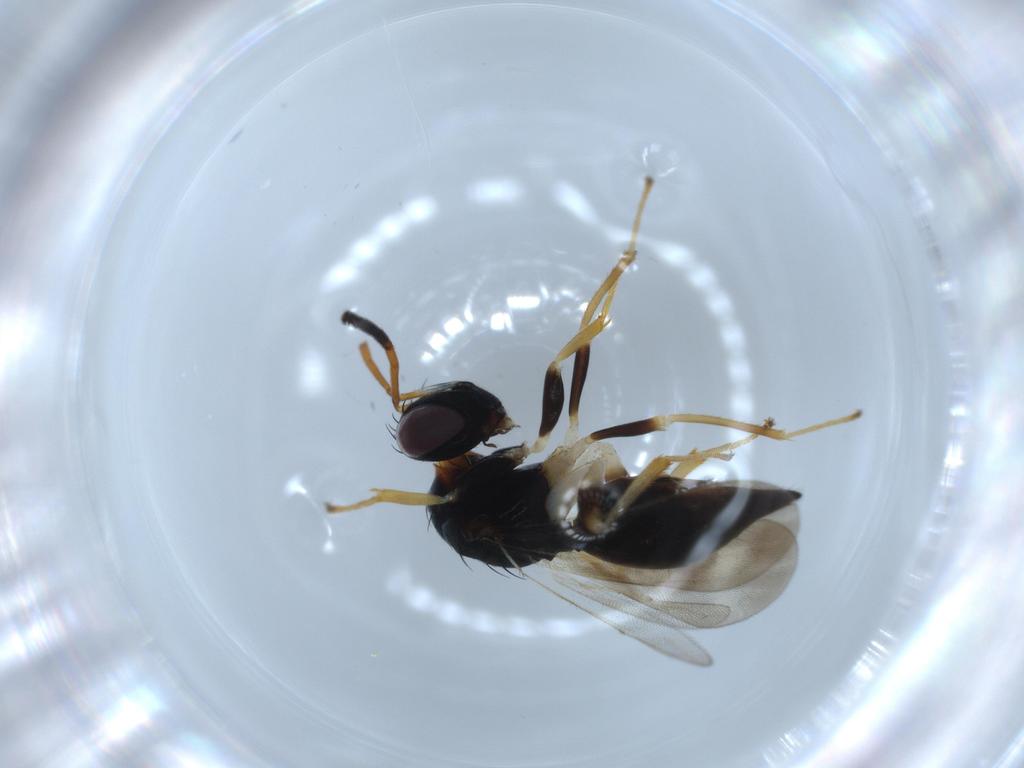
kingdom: Animalia
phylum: Arthropoda
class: Insecta
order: Hymenoptera
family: Diparidae
